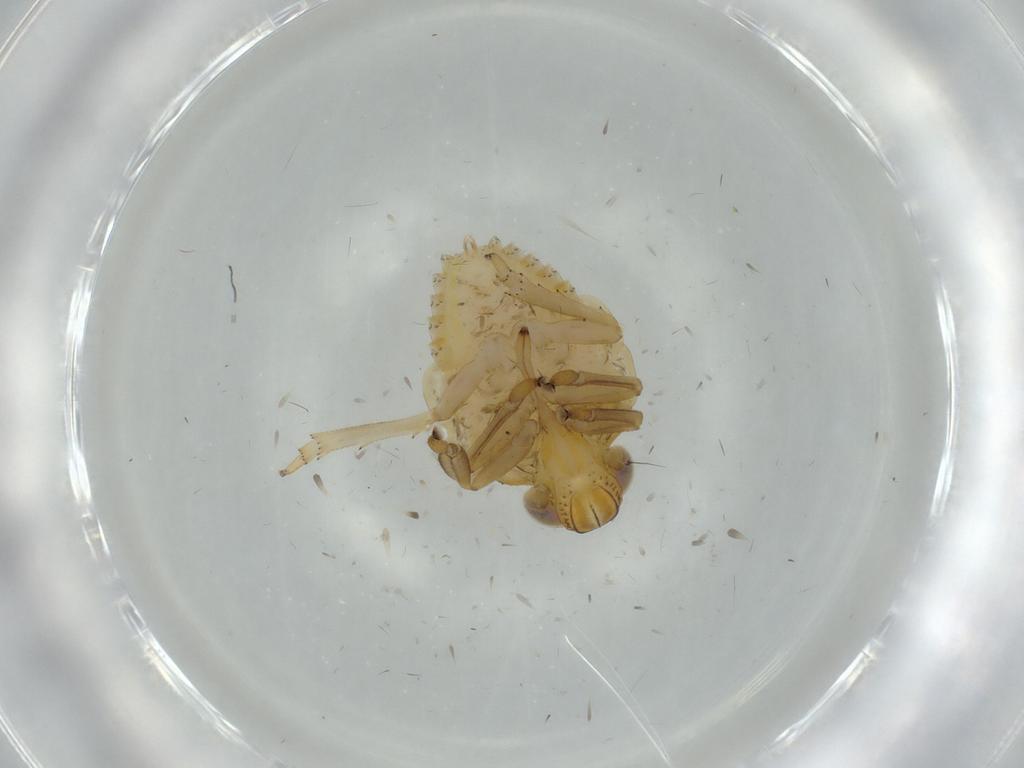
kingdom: Animalia
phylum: Arthropoda
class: Insecta
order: Hemiptera
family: Issidae
